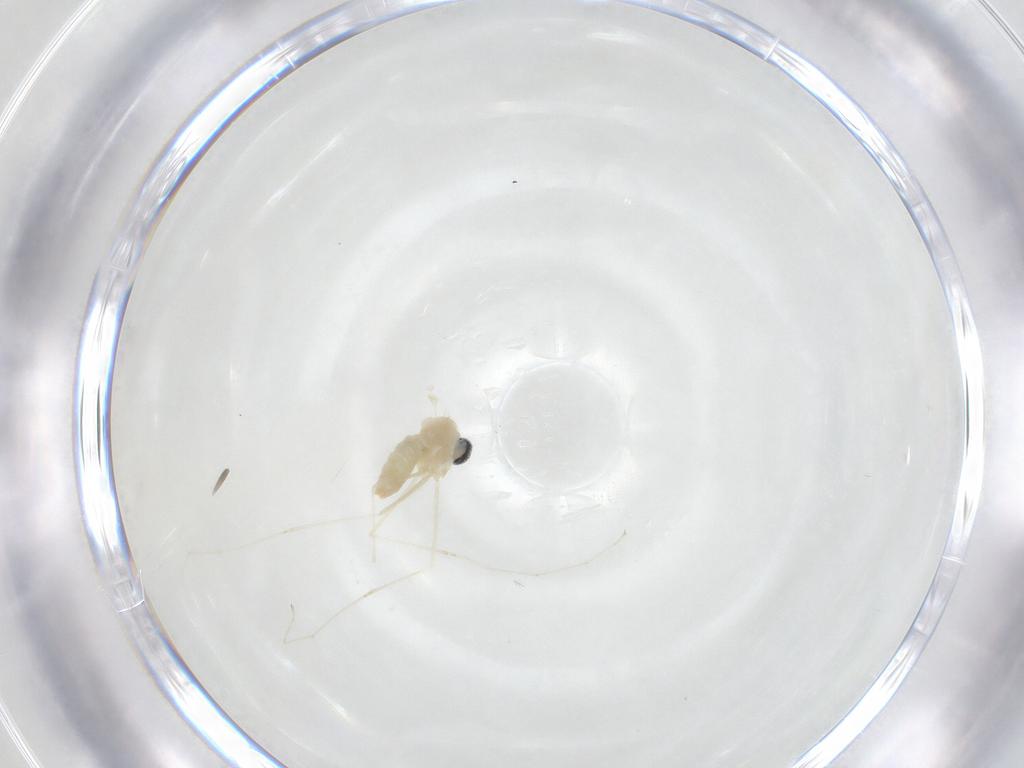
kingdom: Animalia
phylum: Arthropoda
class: Insecta
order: Diptera
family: Cecidomyiidae
